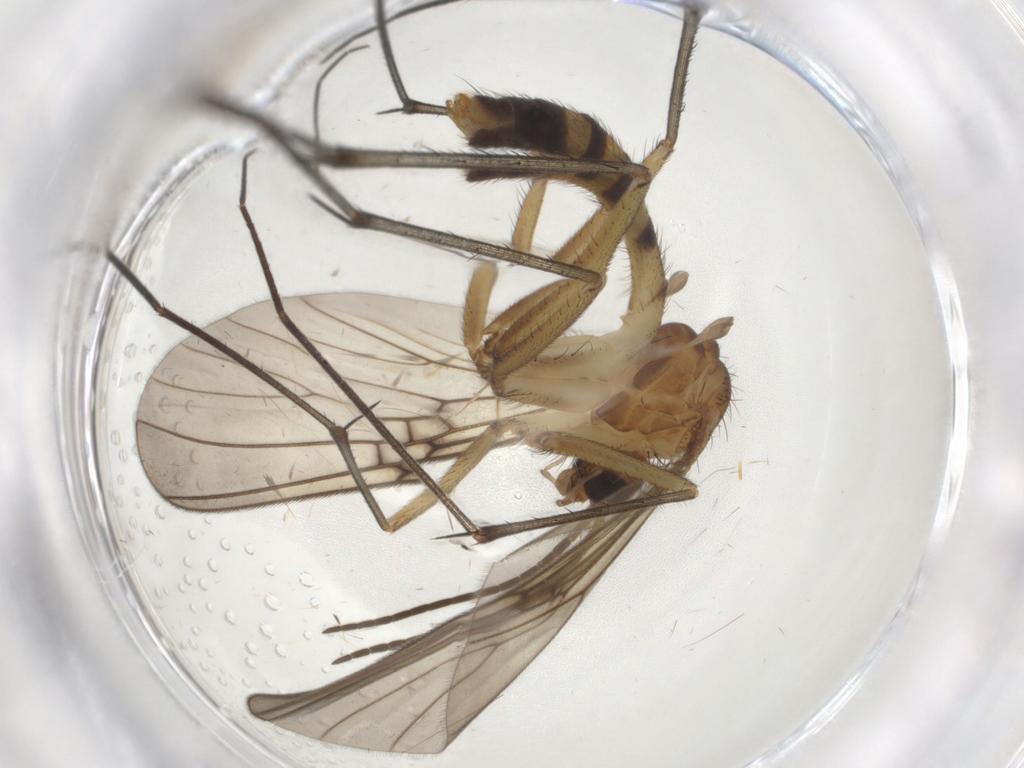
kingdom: Animalia
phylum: Arthropoda
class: Insecta
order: Diptera
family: Mycetophilidae
